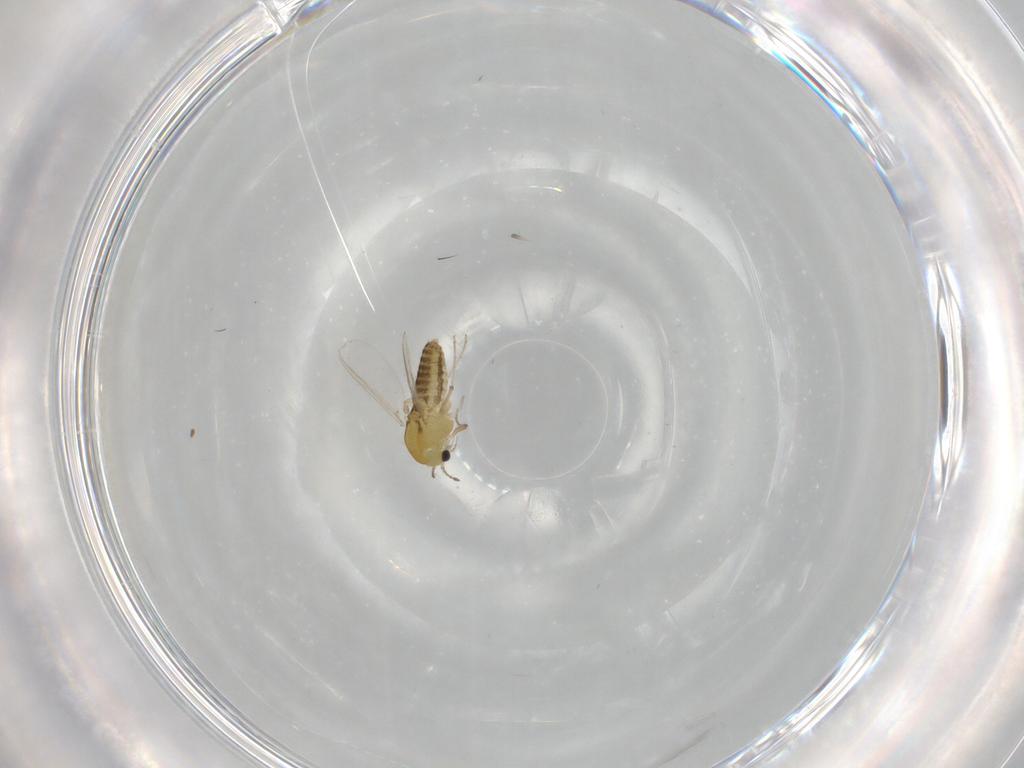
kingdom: Animalia
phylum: Arthropoda
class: Insecta
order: Diptera
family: Chironomidae
